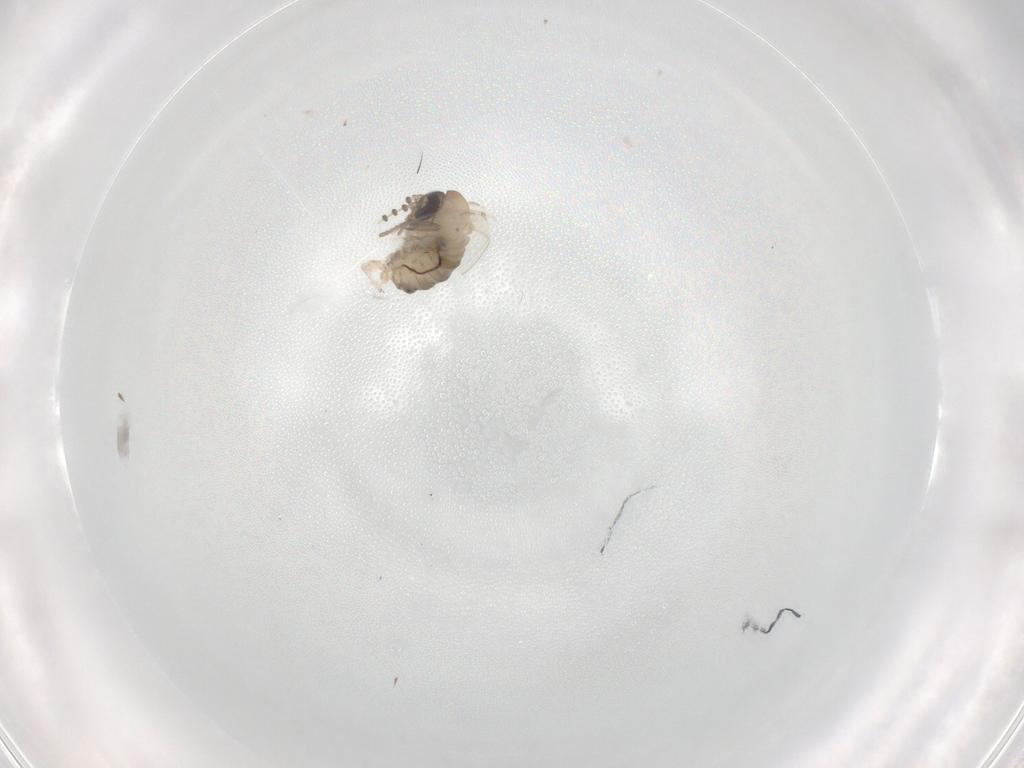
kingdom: Animalia
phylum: Arthropoda
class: Insecta
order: Diptera
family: Psychodidae
